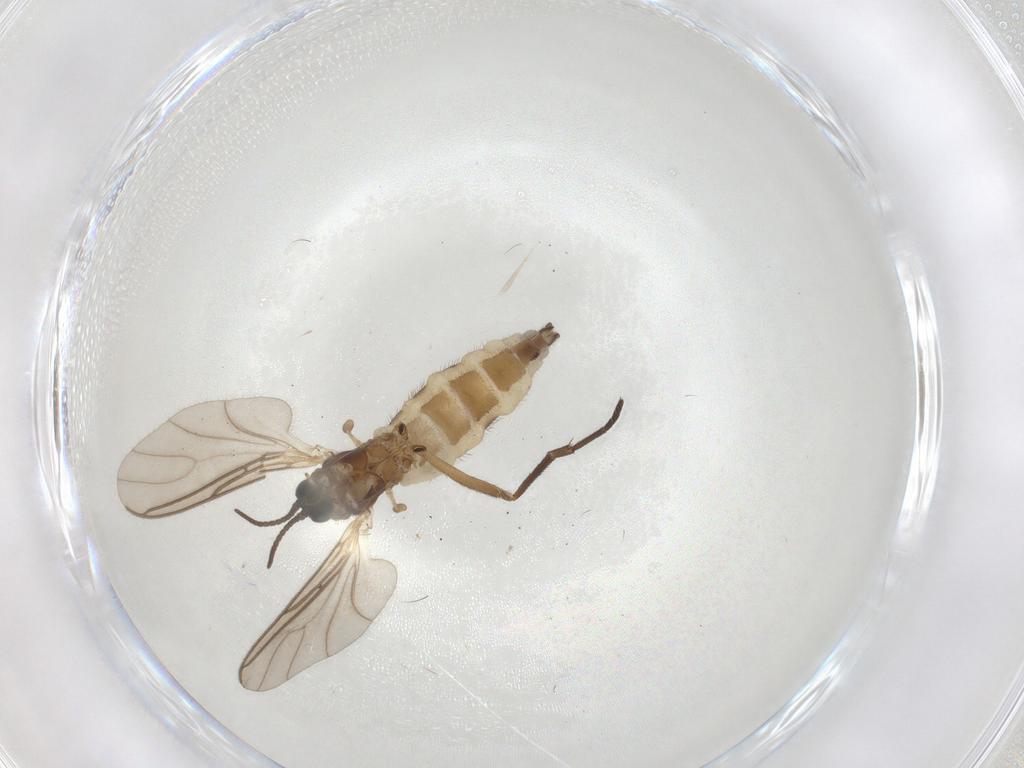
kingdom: Animalia
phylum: Arthropoda
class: Insecta
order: Diptera
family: Sciaridae
